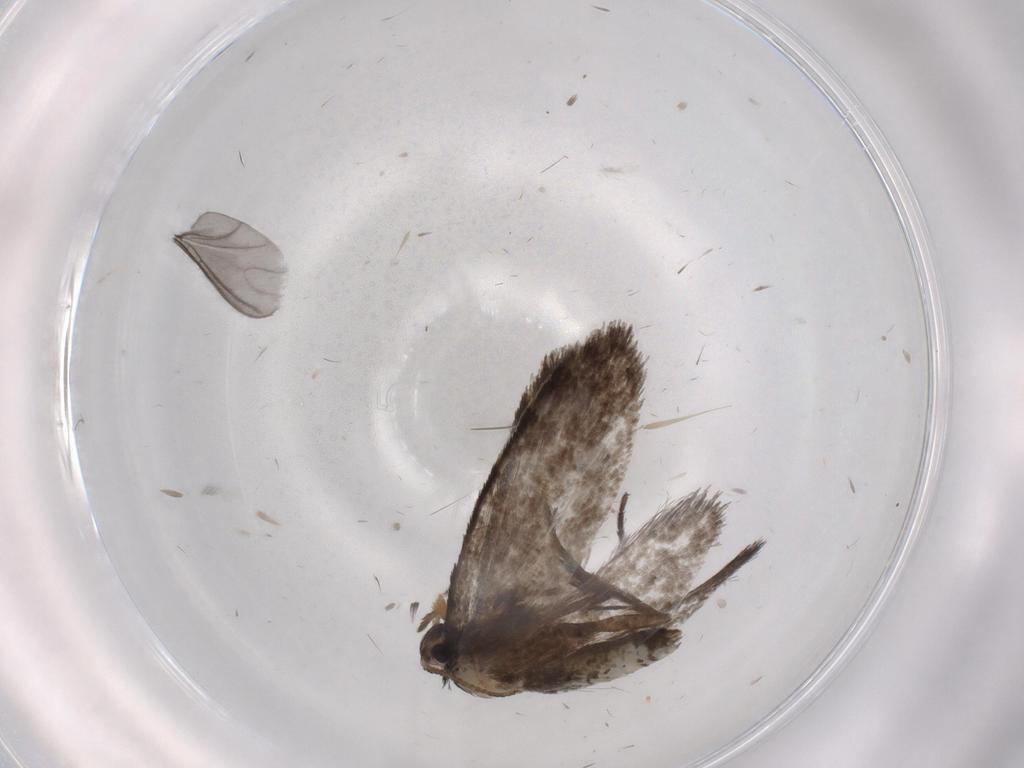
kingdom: Animalia
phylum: Arthropoda
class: Insecta
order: Lepidoptera
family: Psychidae
